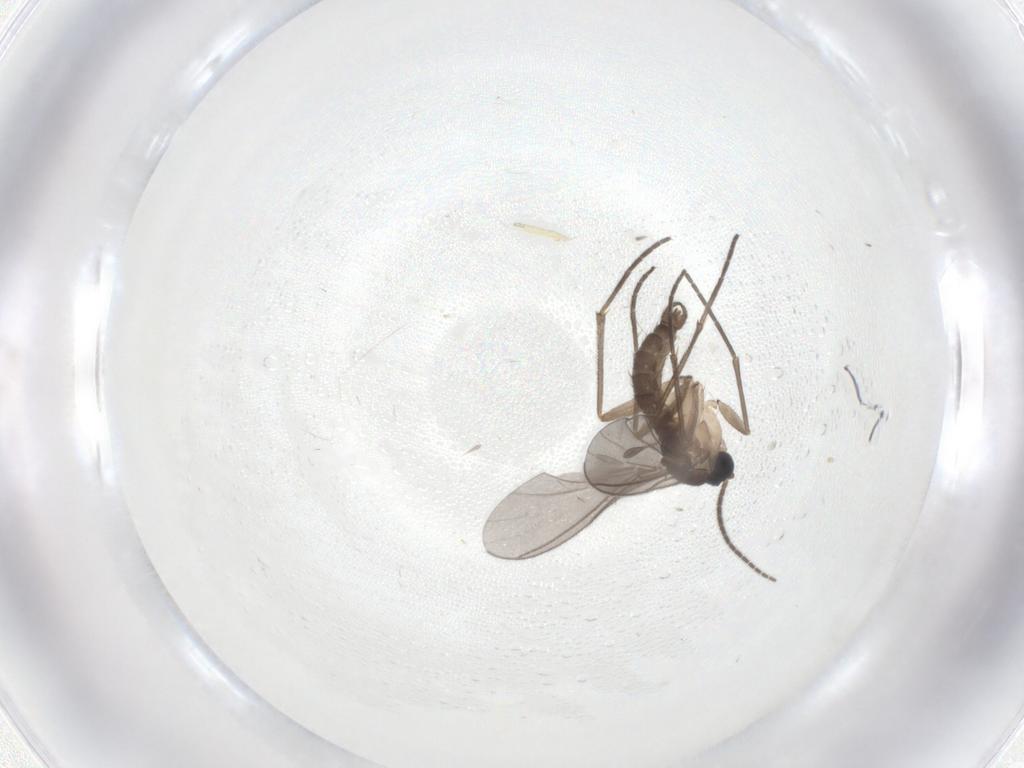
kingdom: Animalia
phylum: Arthropoda
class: Insecta
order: Diptera
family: Sciaridae
